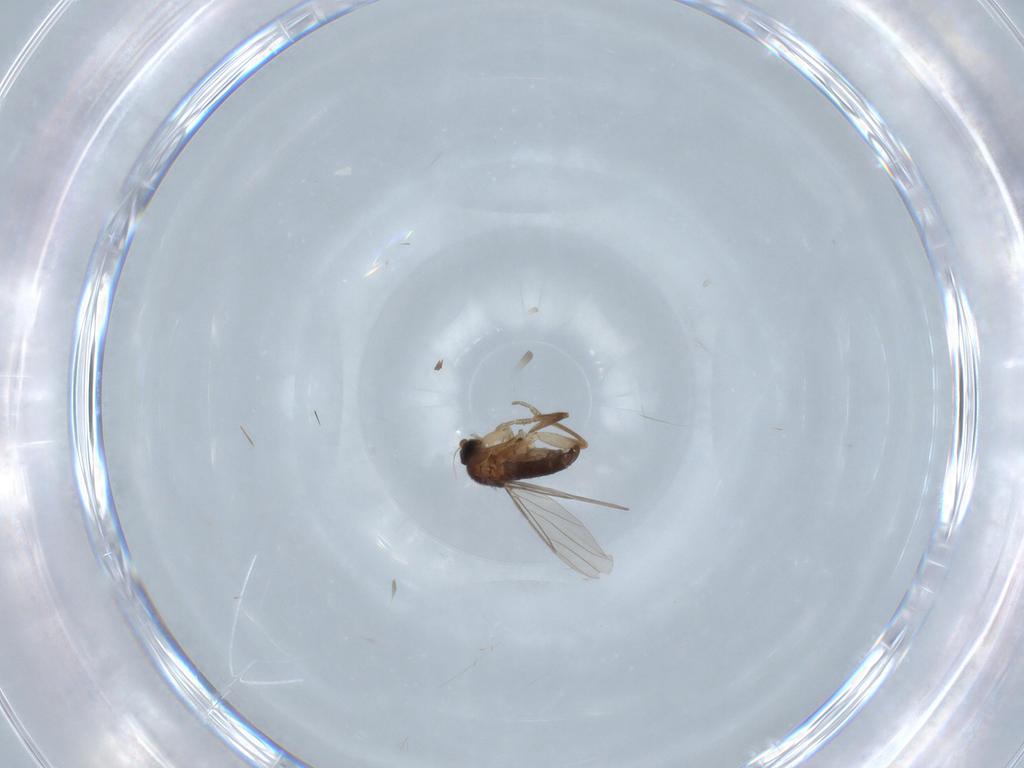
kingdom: Animalia
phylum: Arthropoda
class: Insecta
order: Diptera
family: Phoridae
